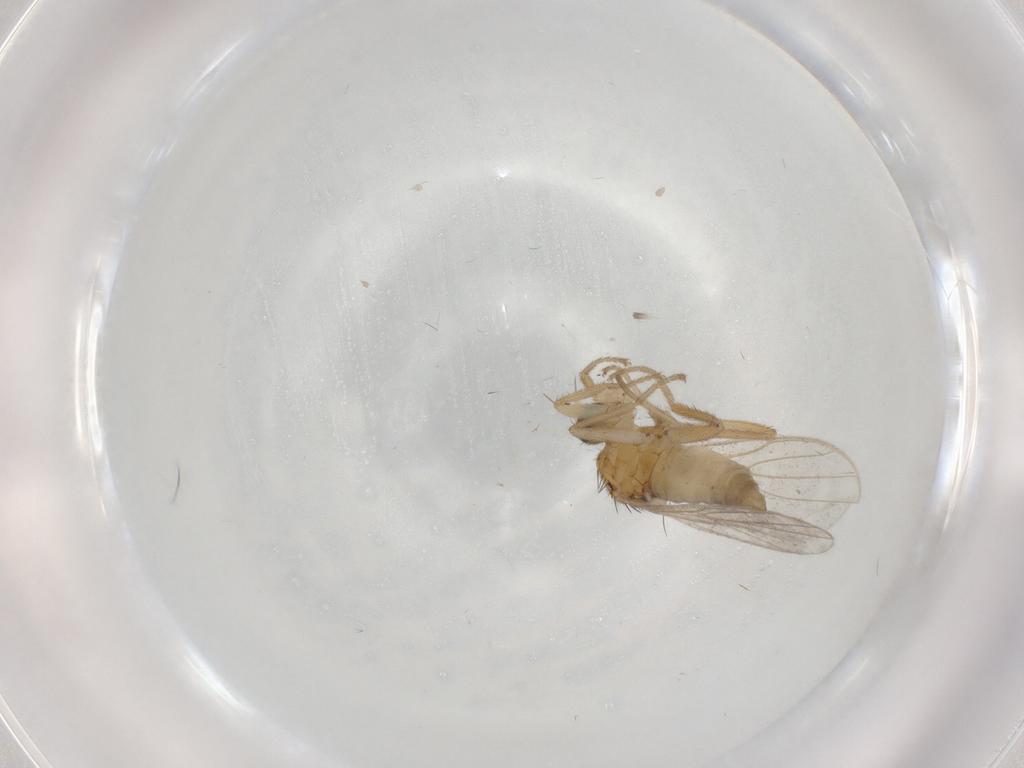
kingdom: Animalia
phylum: Arthropoda
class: Insecta
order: Diptera
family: Hybotidae
